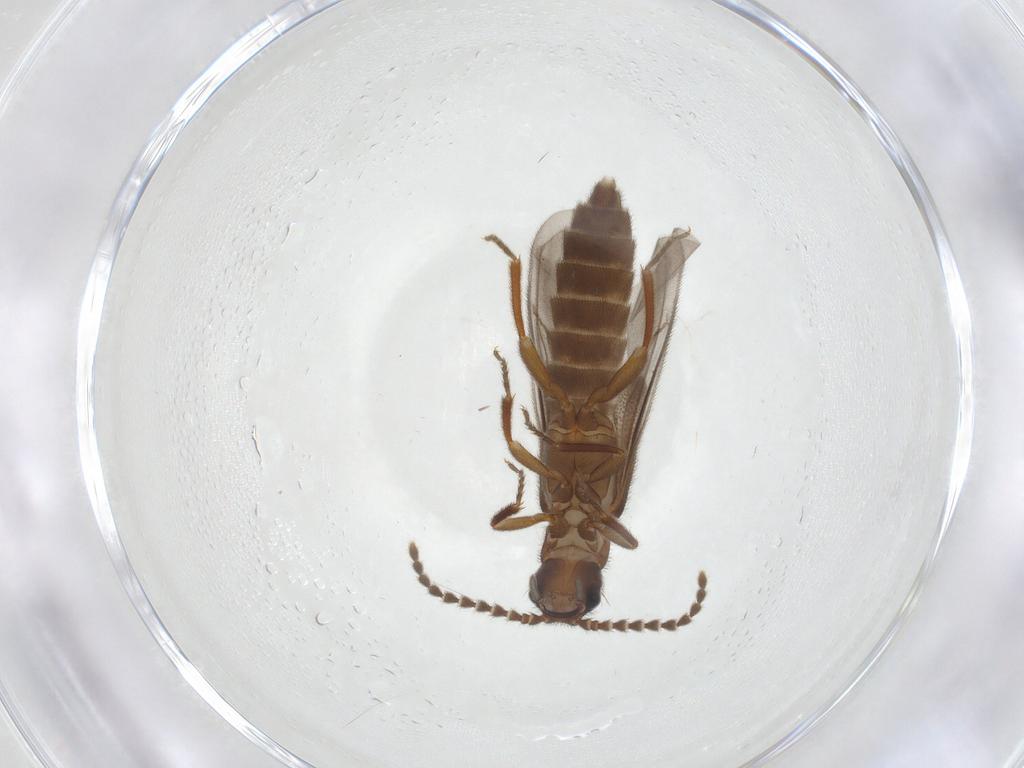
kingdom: Animalia
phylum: Arthropoda
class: Insecta
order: Coleoptera
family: Omethidae
